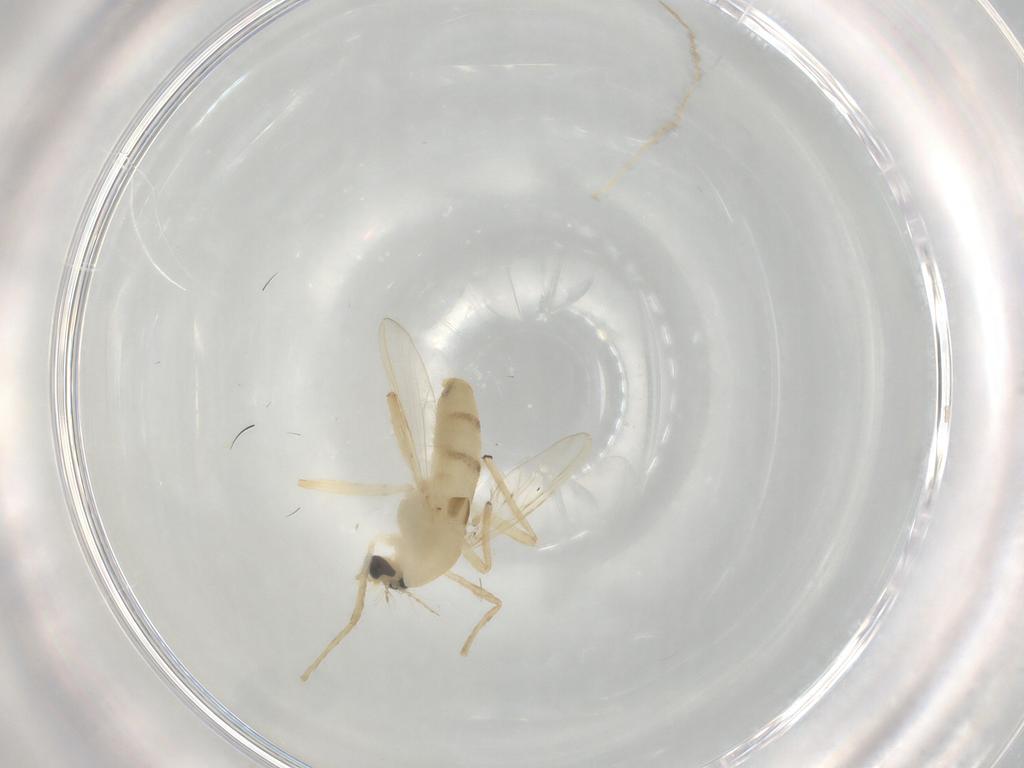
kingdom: Animalia
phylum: Arthropoda
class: Insecta
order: Diptera
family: Chironomidae
